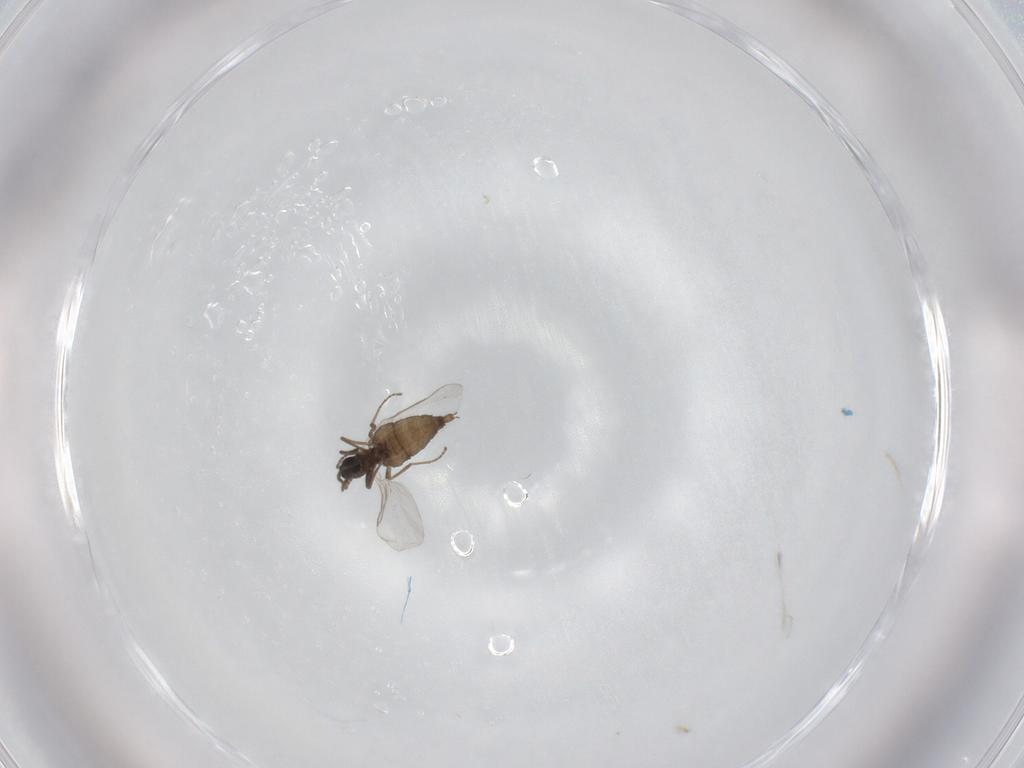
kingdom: Animalia
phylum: Arthropoda
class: Insecta
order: Diptera
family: Cecidomyiidae
